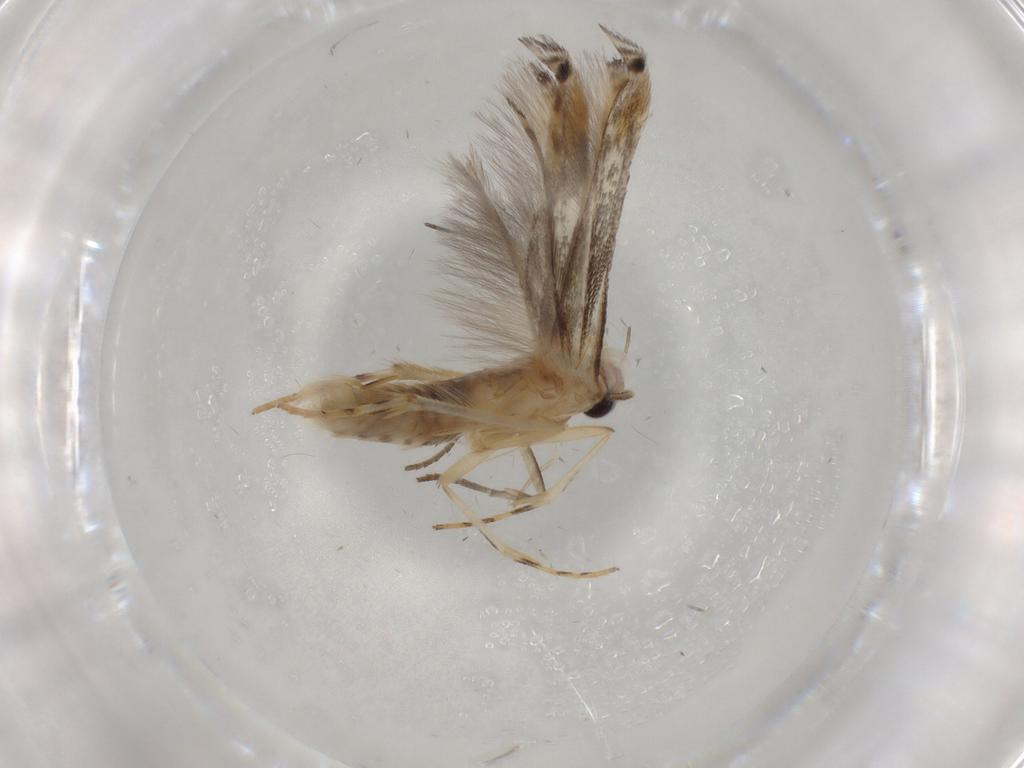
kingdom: Animalia
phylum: Arthropoda
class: Insecta
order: Lepidoptera
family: Gelechiidae
